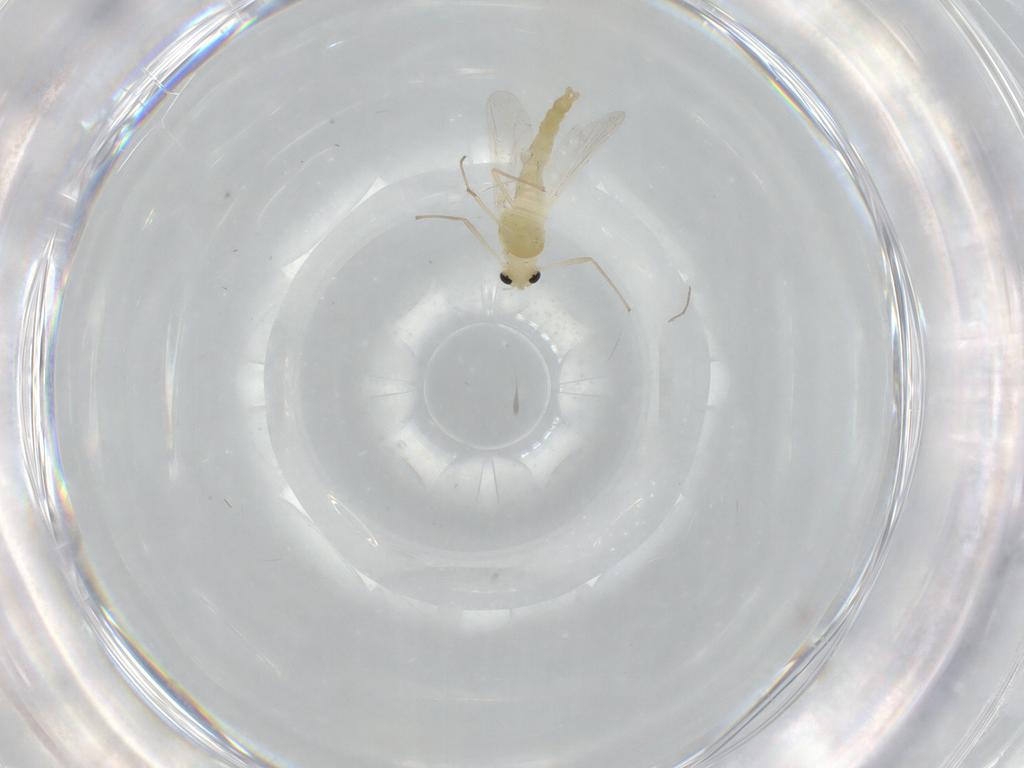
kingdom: Animalia
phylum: Arthropoda
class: Insecta
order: Diptera
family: Chironomidae
